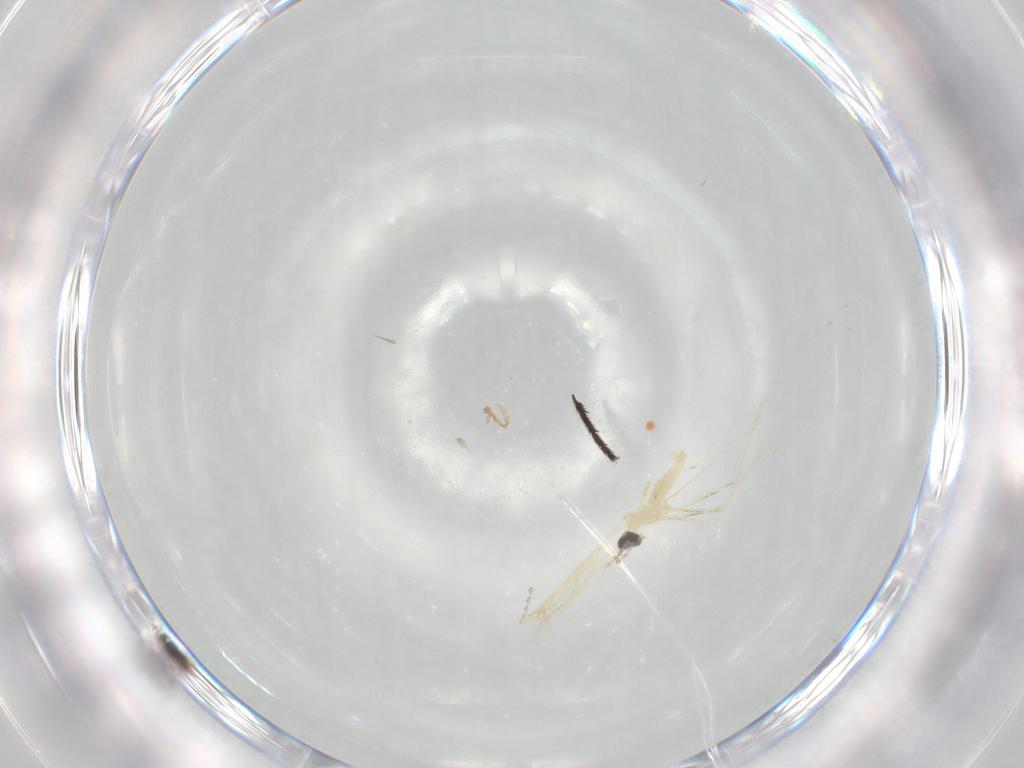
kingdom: Animalia
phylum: Arthropoda
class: Insecta
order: Diptera
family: Cecidomyiidae
